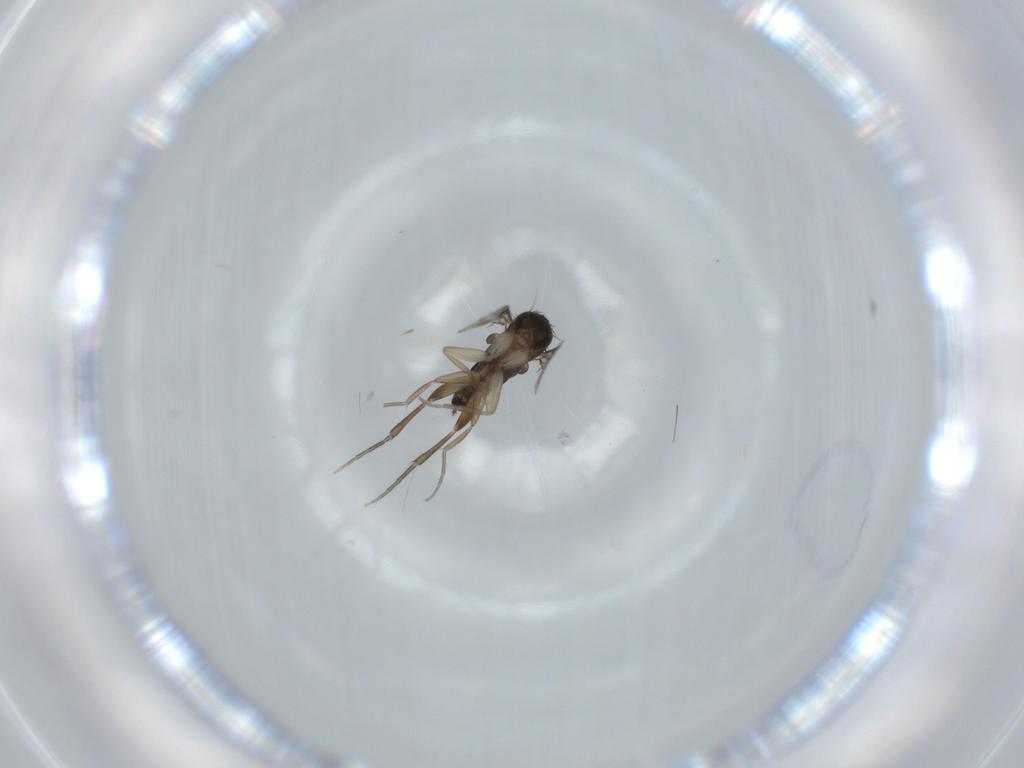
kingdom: Animalia
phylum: Arthropoda
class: Insecta
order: Diptera
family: Phoridae
